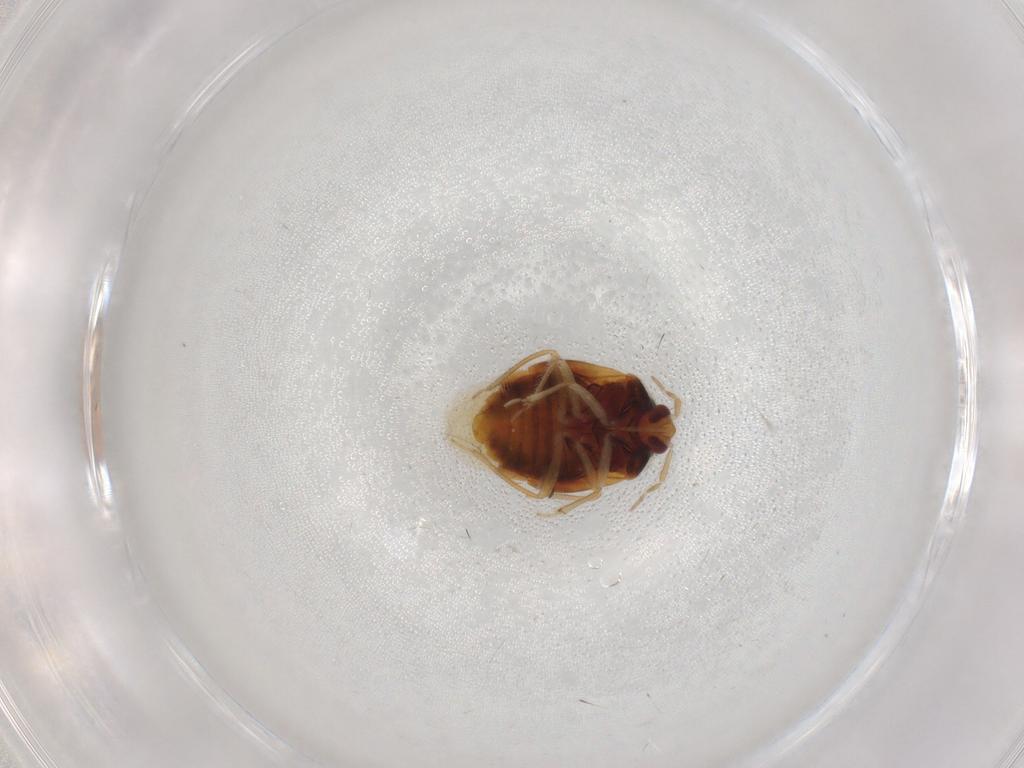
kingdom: Animalia
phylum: Arthropoda
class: Insecta
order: Hemiptera
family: Anthocoridae
